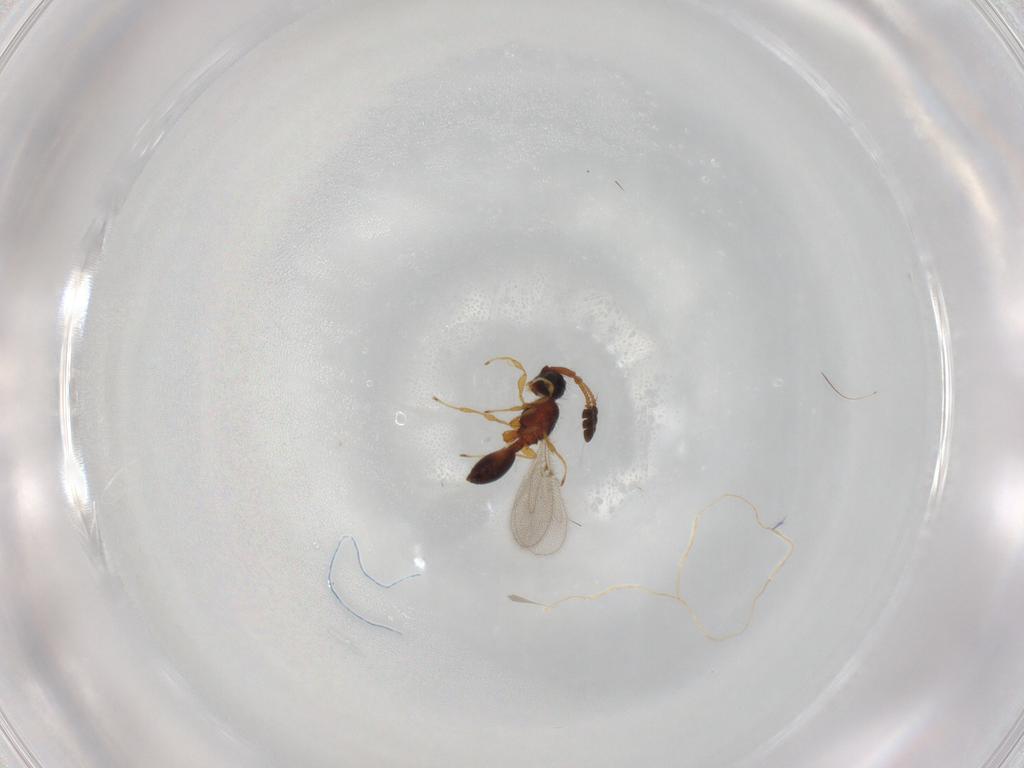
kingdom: Animalia
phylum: Arthropoda
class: Insecta
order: Hymenoptera
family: Diapriidae
